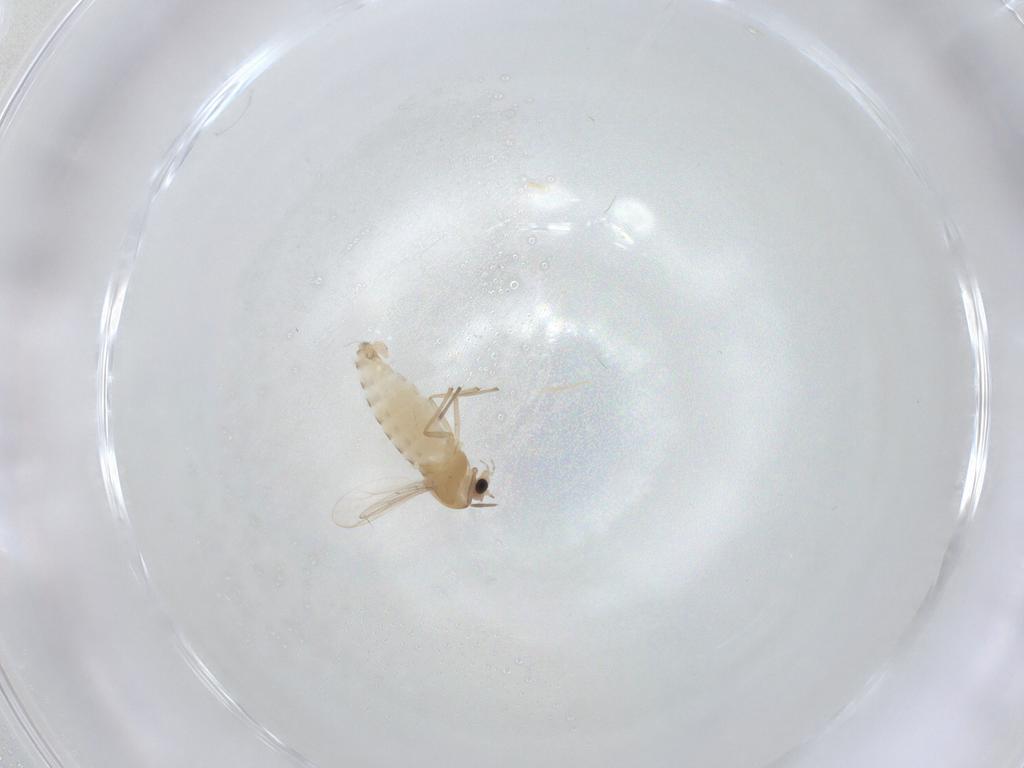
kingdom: Animalia
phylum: Arthropoda
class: Insecta
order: Diptera
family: Chironomidae
